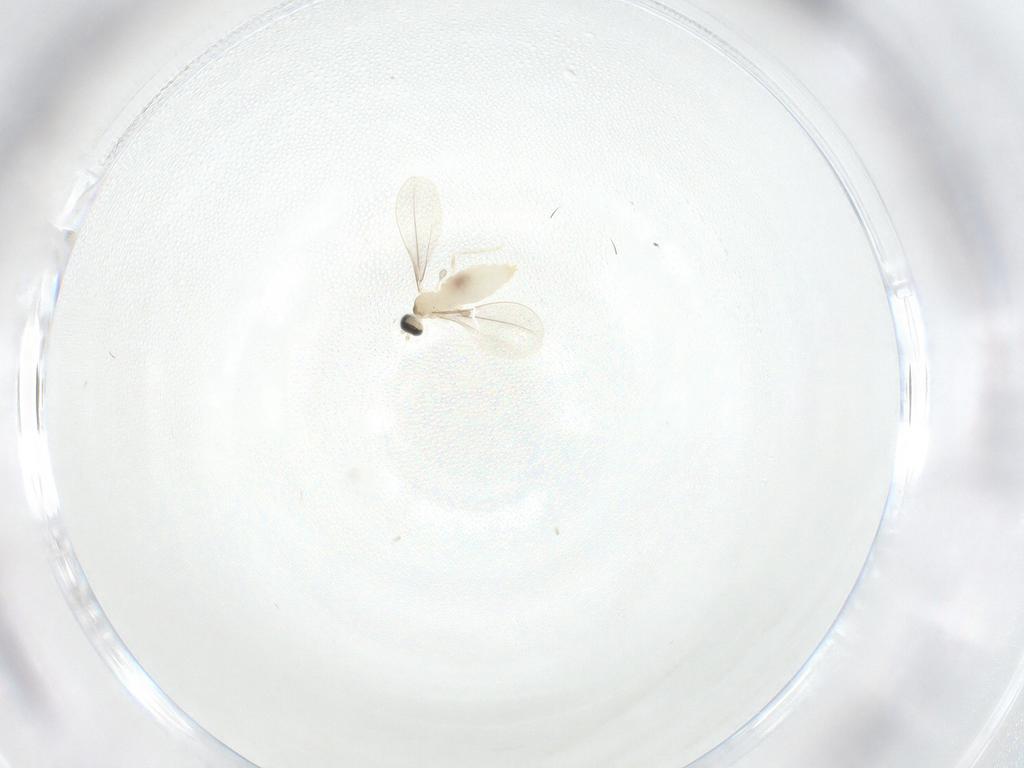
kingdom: Animalia
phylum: Arthropoda
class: Insecta
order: Diptera
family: Cecidomyiidae
